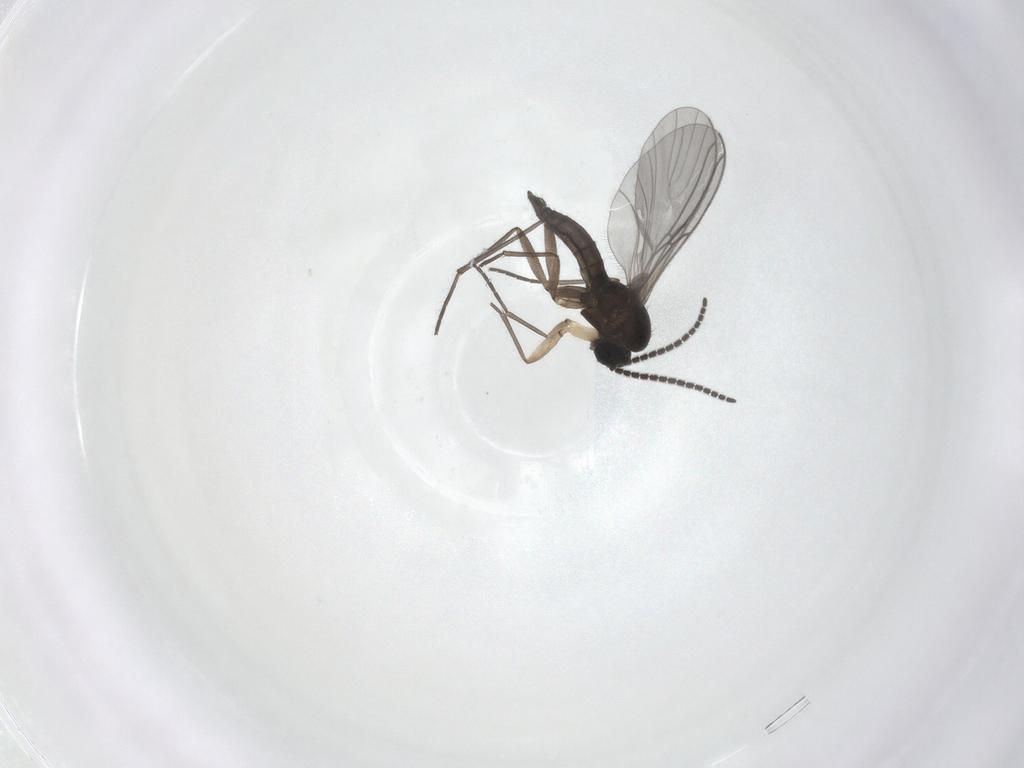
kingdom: Animalia
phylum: Arthropoda
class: Insecta
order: Diptera
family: Sciaridae
